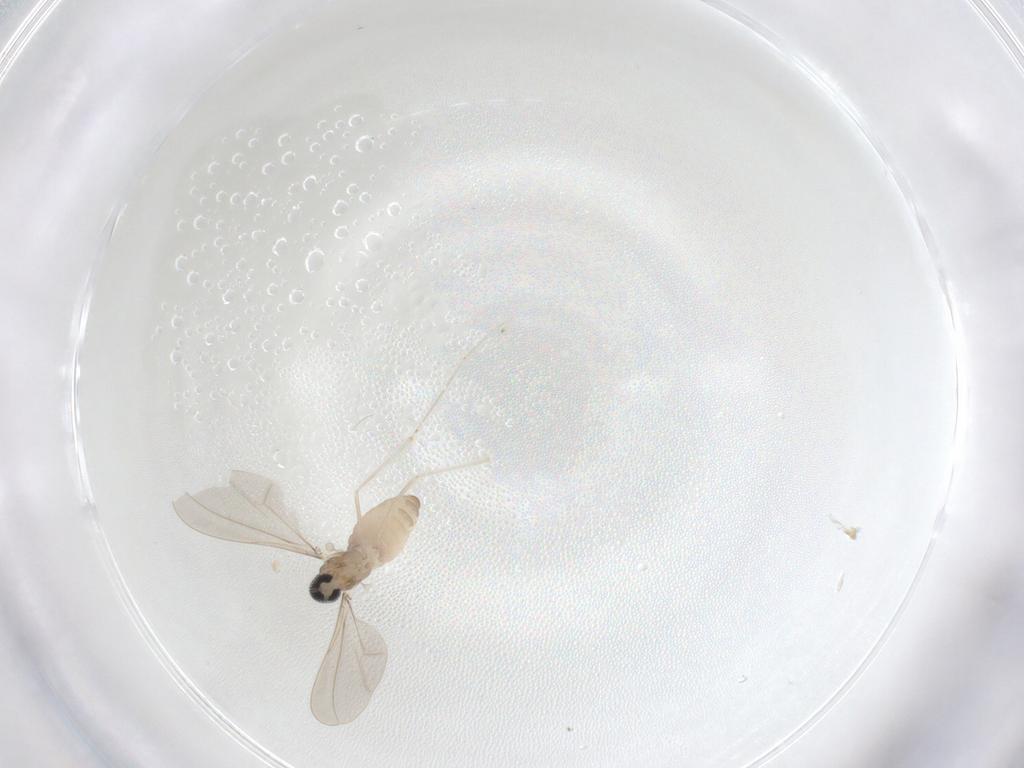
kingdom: Animalia
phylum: Arthropoda
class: Insecta
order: Diptera
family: Cecidomyiidae
